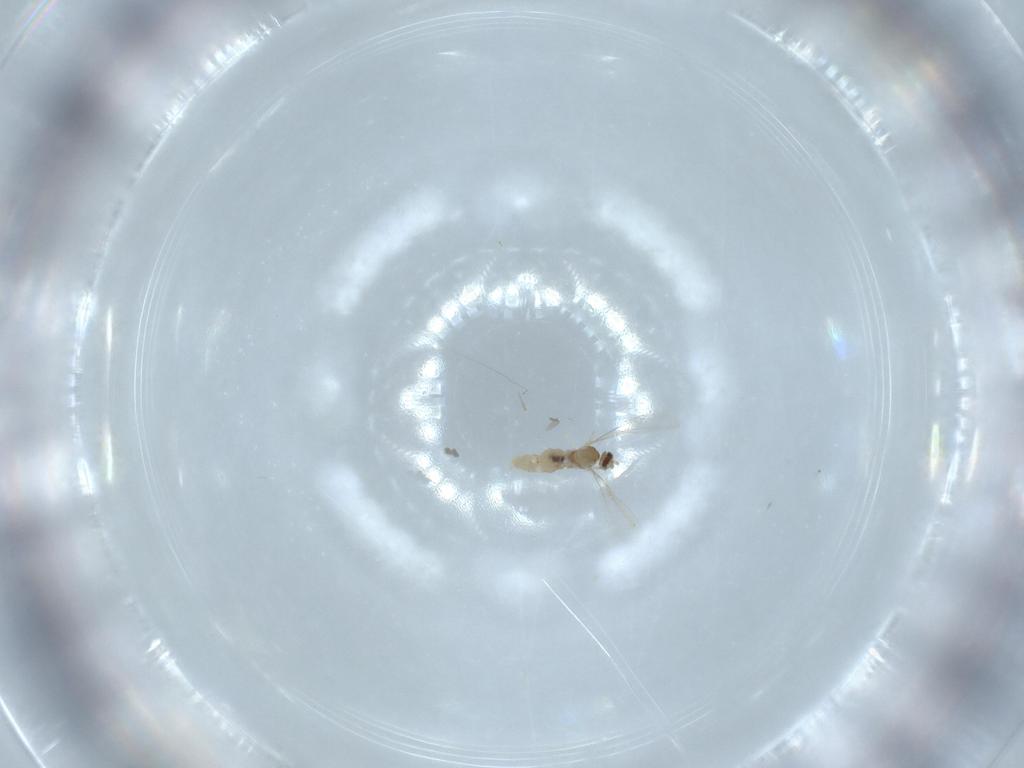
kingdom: Animalia
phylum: Arthropoda
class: Insecta
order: Diptera
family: Cecidomyiidae
